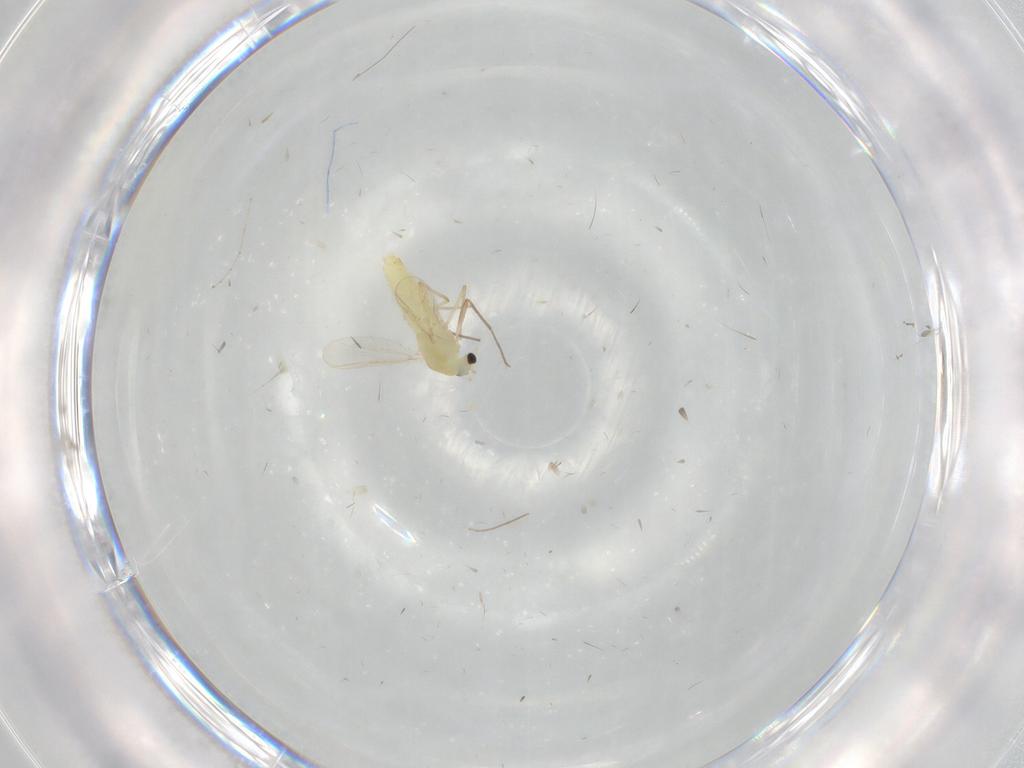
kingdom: Animalia
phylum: Arthropoda
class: Insecta
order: Diptera
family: Chironomidae
